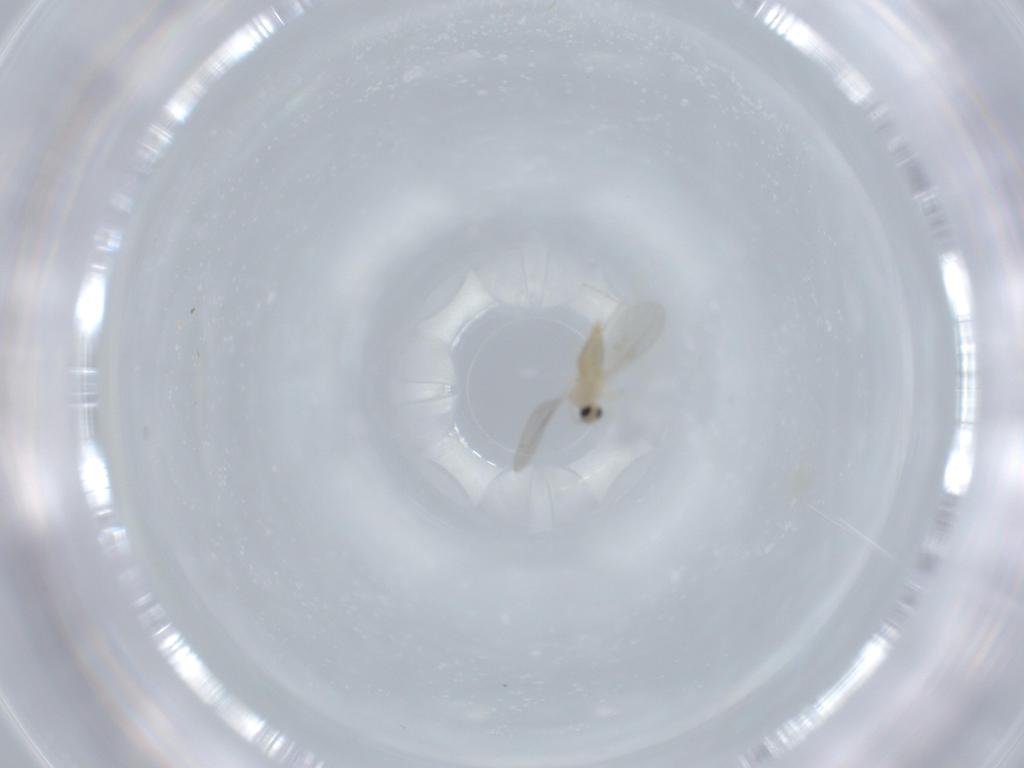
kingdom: Animalia
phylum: Arthropoda
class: Insecta
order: Diptera
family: Cecidomyiidae
